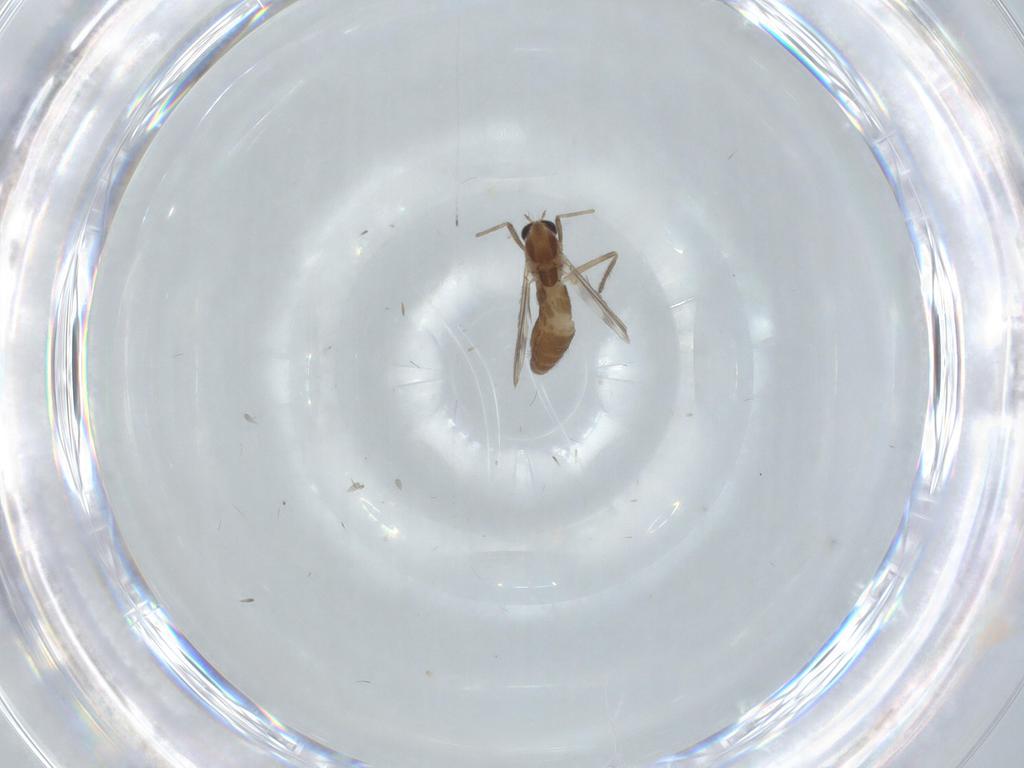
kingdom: Animalia
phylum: Arthropoda
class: Insecta
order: Diptera
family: Chironomidae
